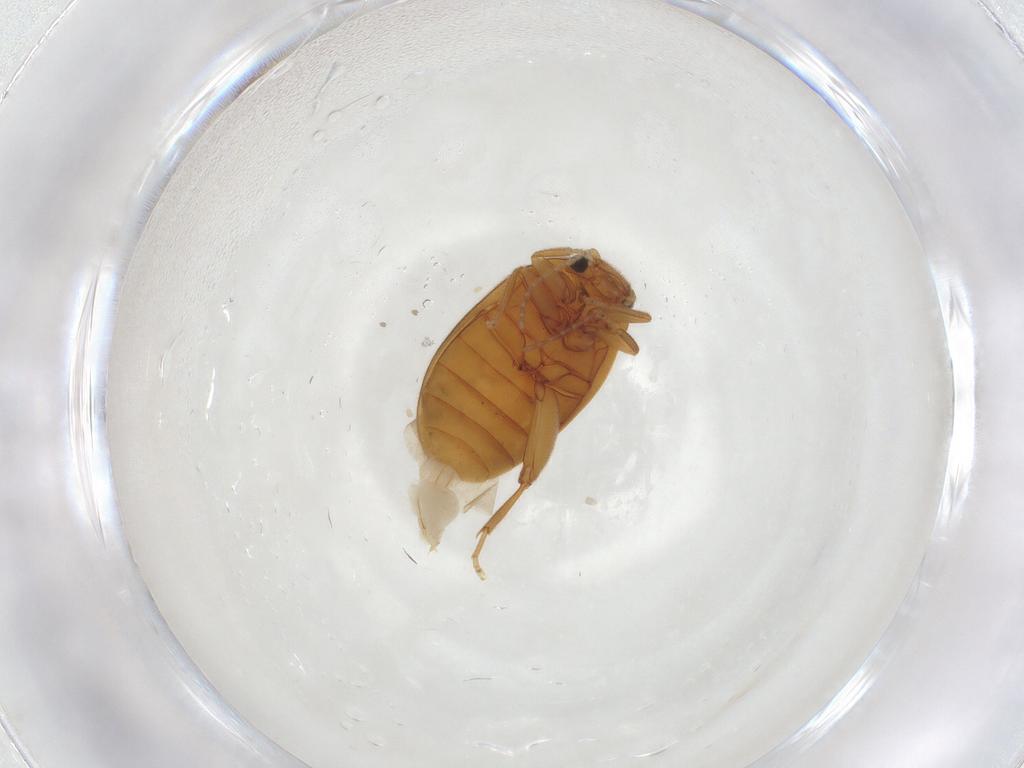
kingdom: Animalia
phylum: Arthropoda
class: Insecta
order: Coleoptera
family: Scirtidae
